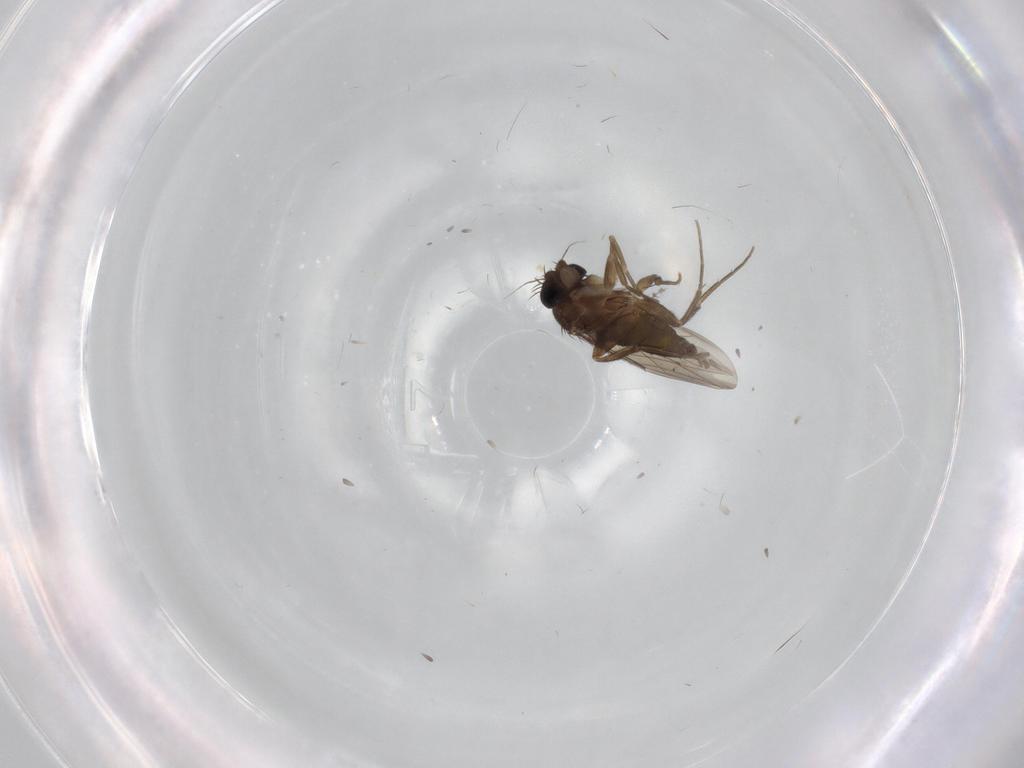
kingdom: Animalia
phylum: Arthropoda
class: Insecta
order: Diptera
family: Phoridae
